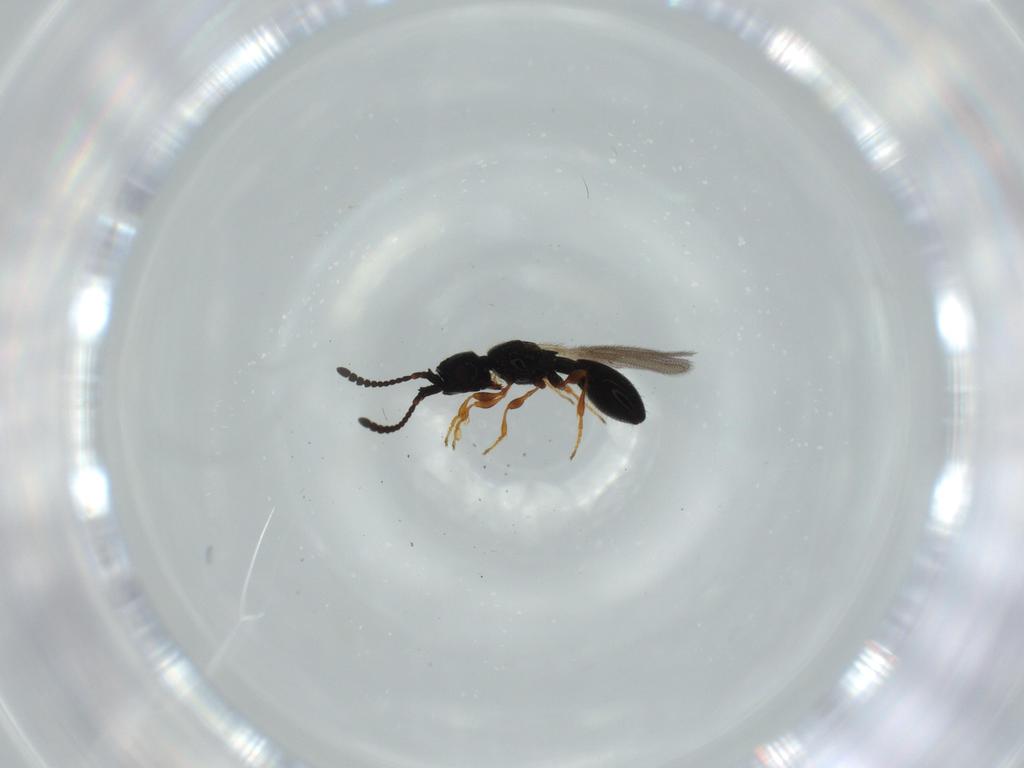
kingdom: Animalia
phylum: Arthropoda
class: Insecta
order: Hymenoptera
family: Diapriidae
